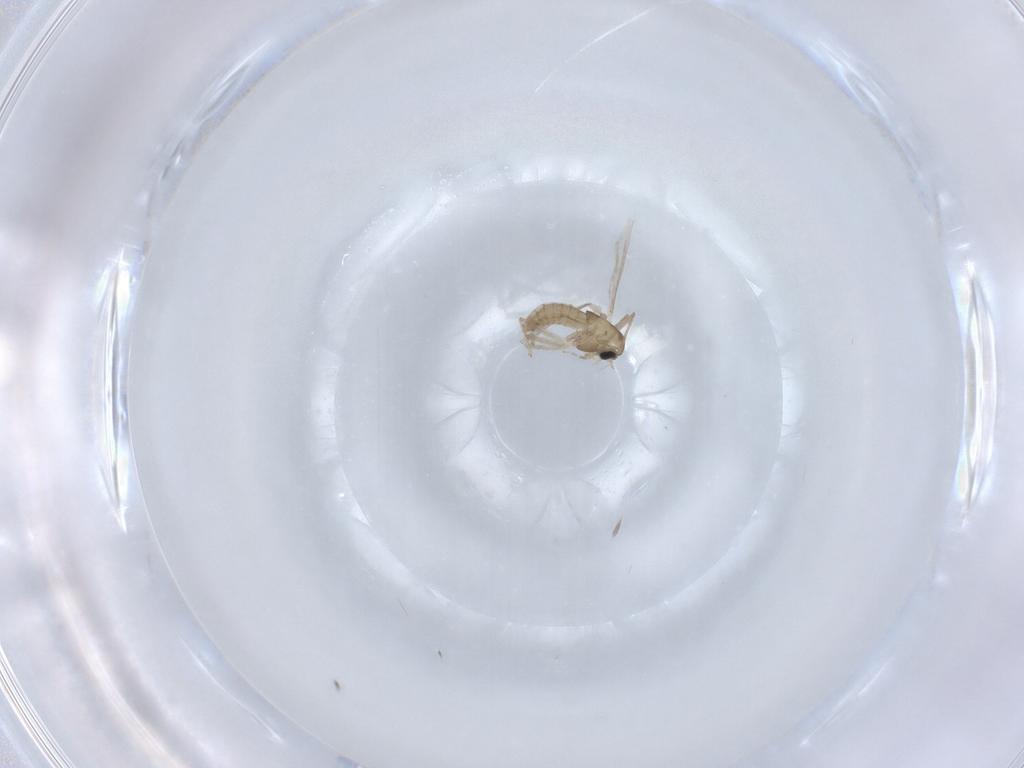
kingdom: Animalia
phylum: Arthropoda
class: Insecta
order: Diptera
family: Chironomidae
